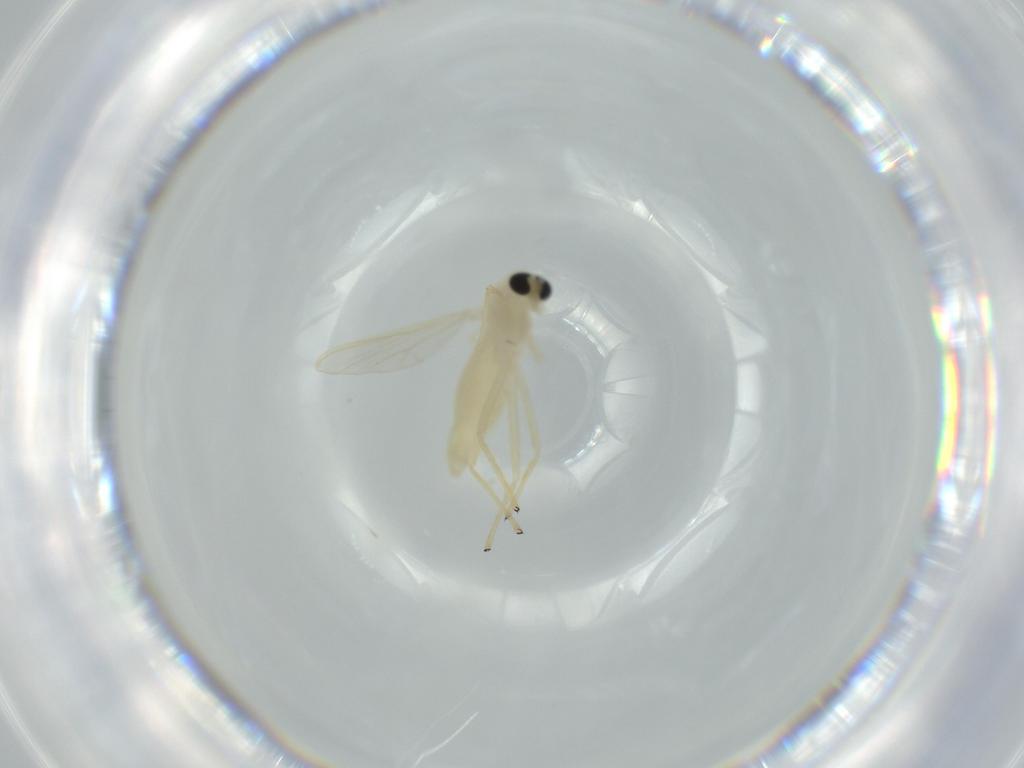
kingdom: Animalia
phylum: Arthropoda
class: Insecta
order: Diptera
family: Chironomidae
